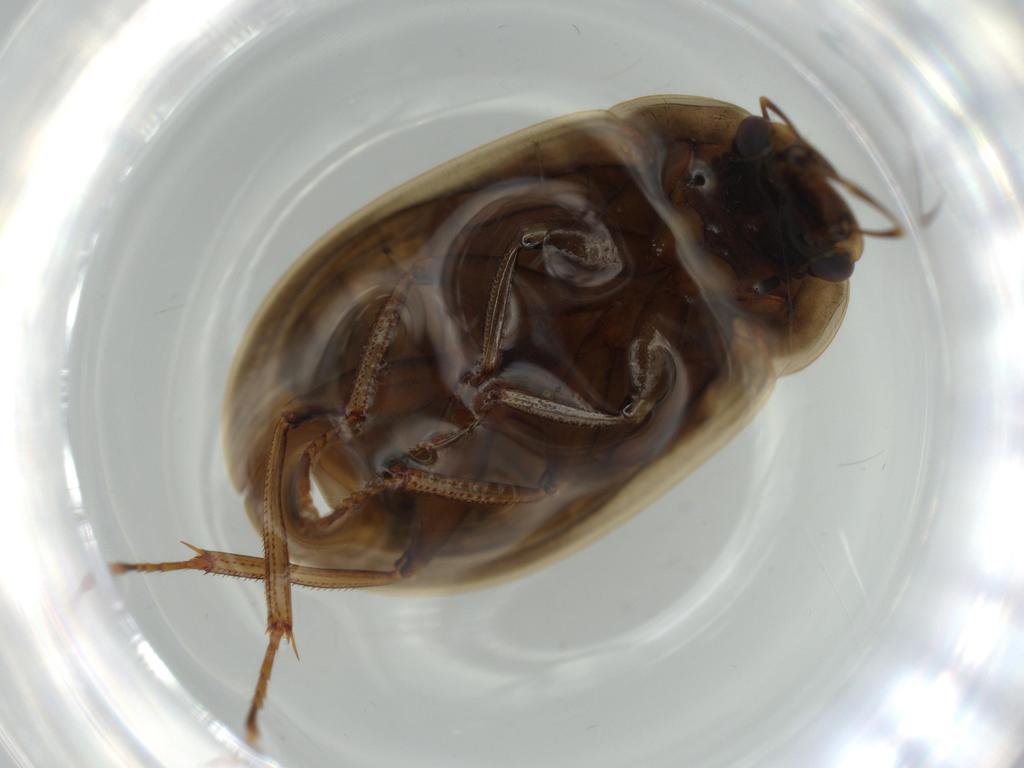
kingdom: Animalia
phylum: Arthropoda
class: Insecta
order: Coleoptera
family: Hydrophilidae
